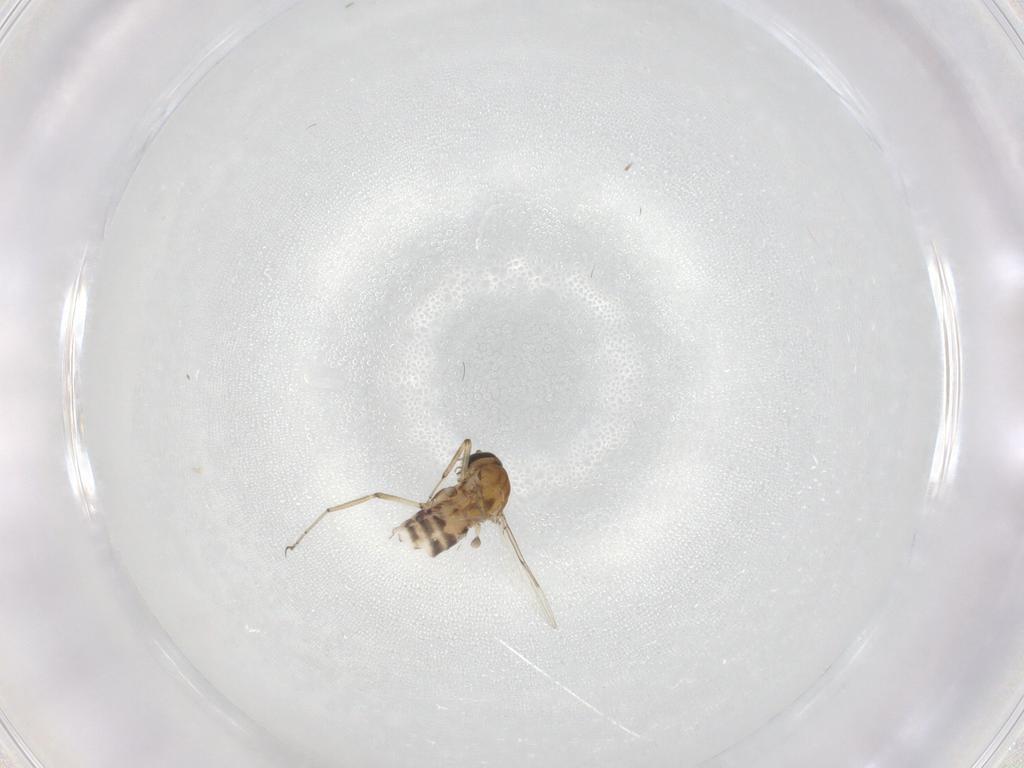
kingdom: Animalia
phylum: Arthropoda
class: Insecta
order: Diptera
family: Ceratopogonidae
